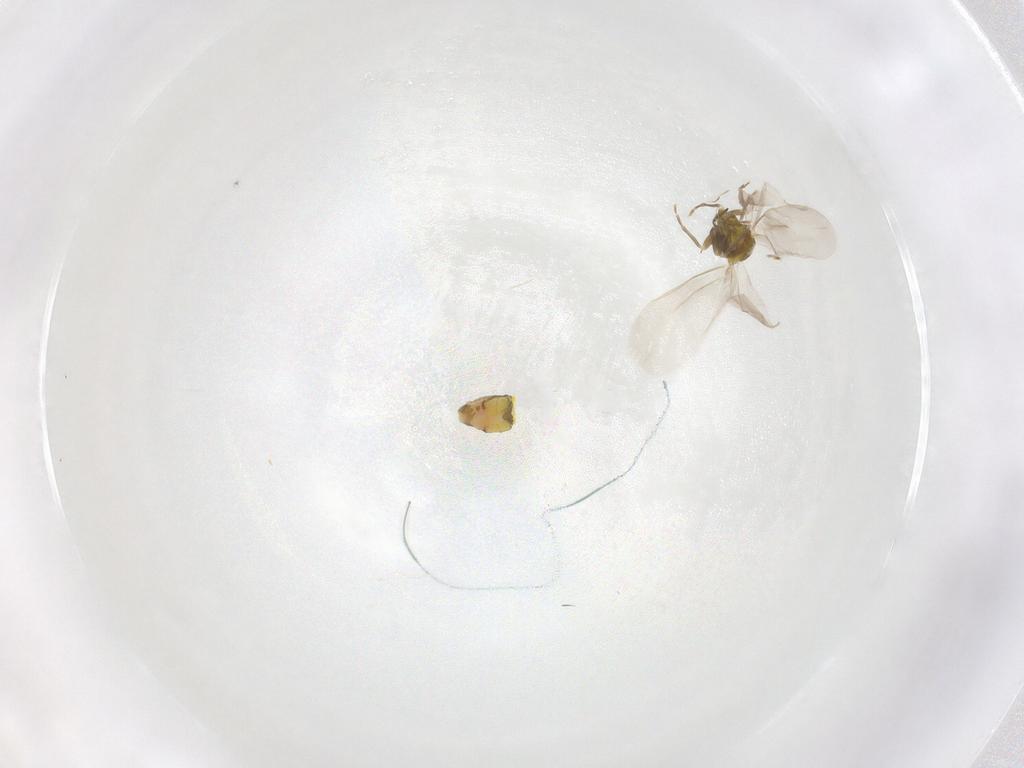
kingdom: Animalia
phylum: Arthropoda
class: Insecta
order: Hemiptera
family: Aleyrodidae
